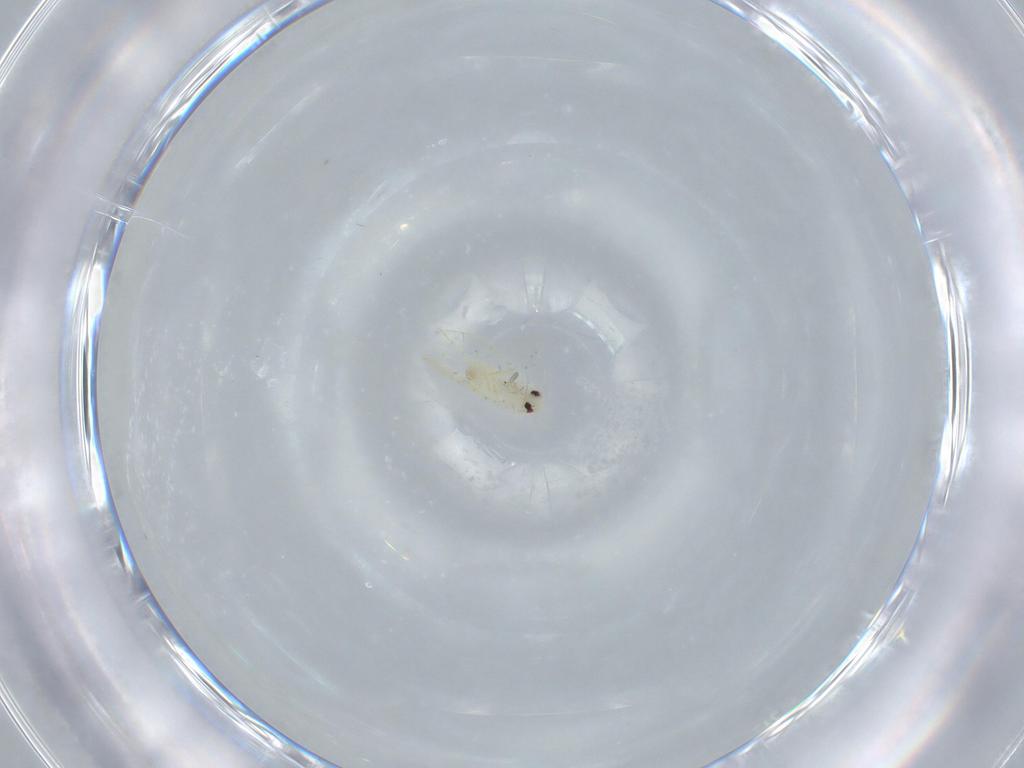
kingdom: Animalia
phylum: Arthropoda
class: Insecta
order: Hemiptera
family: Aleyrodidae
